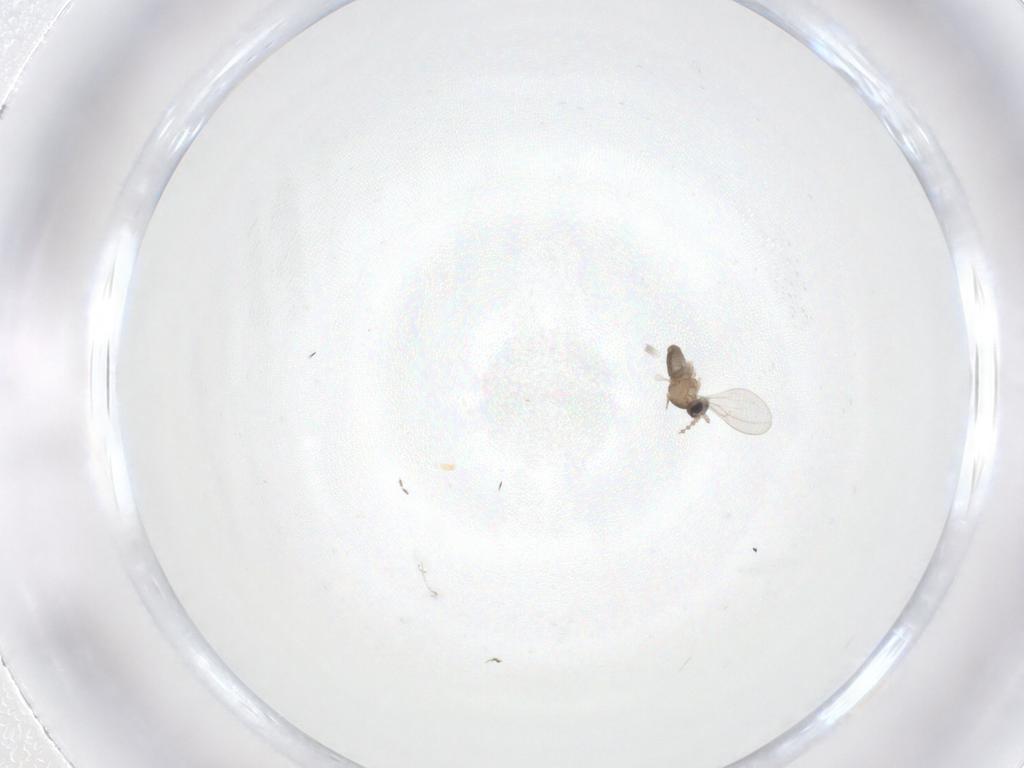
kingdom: Animalia
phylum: Arthropoda
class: Insecta
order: Diptera
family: Cecidomyiidae
